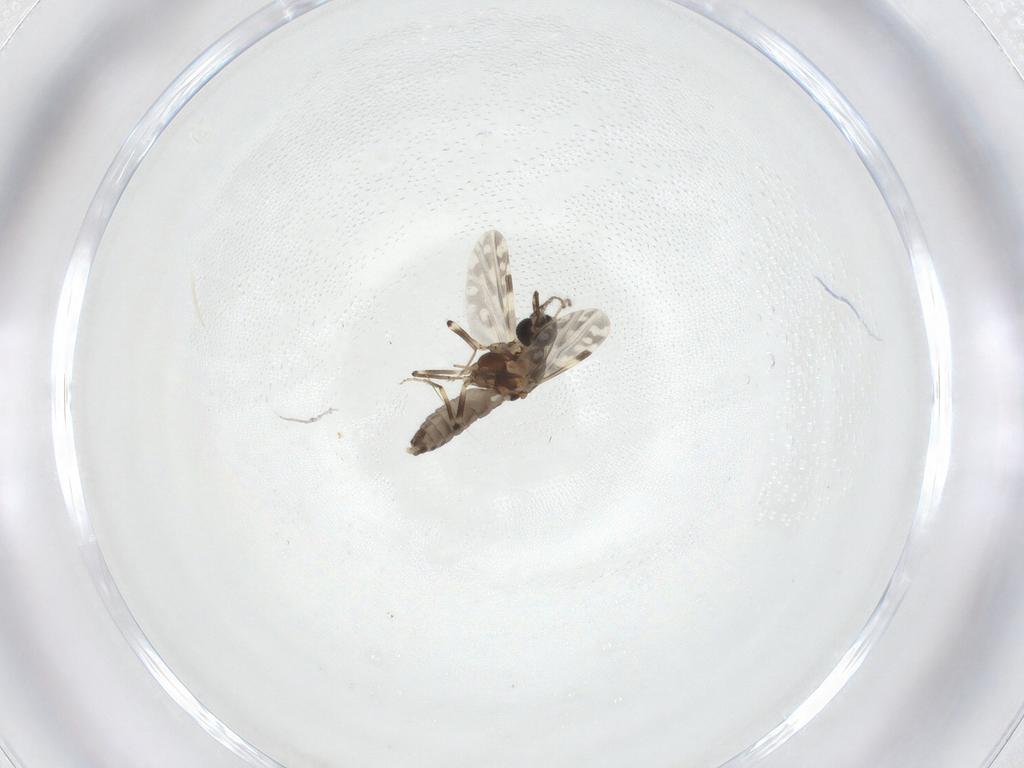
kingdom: Animalia
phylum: Arthropoda
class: Insecta
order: Diptera
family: Ceratopogonidae
